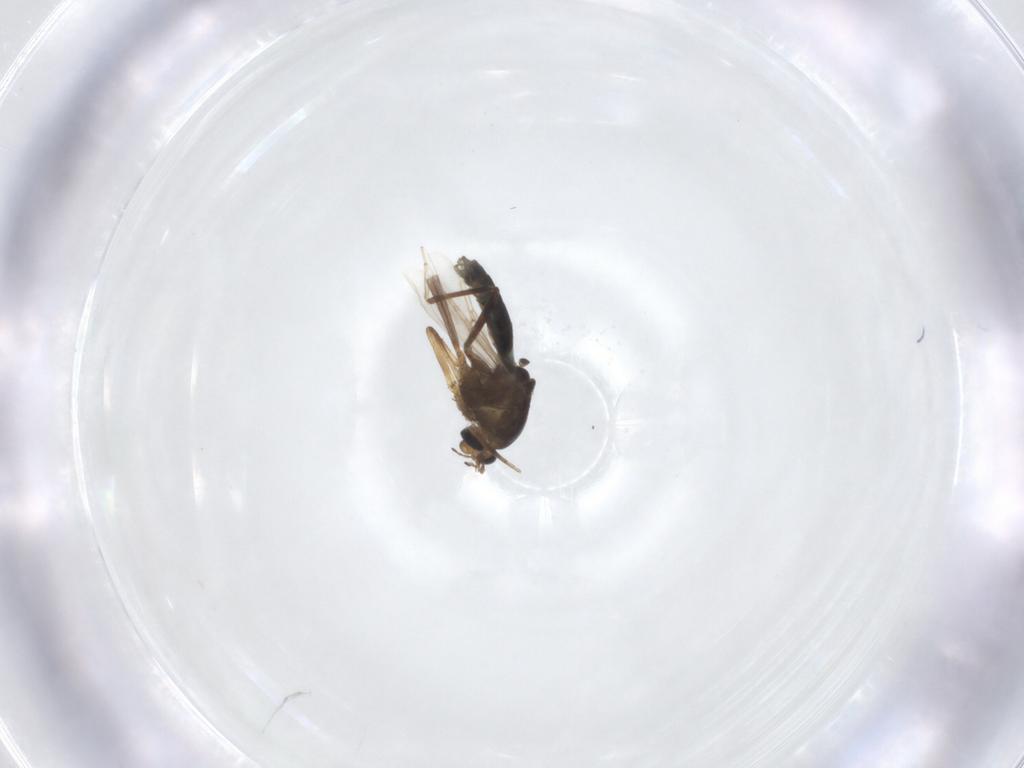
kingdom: Animalia
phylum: Arthropoda
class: Insecta
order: Diptera
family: Ceratopogonidae
